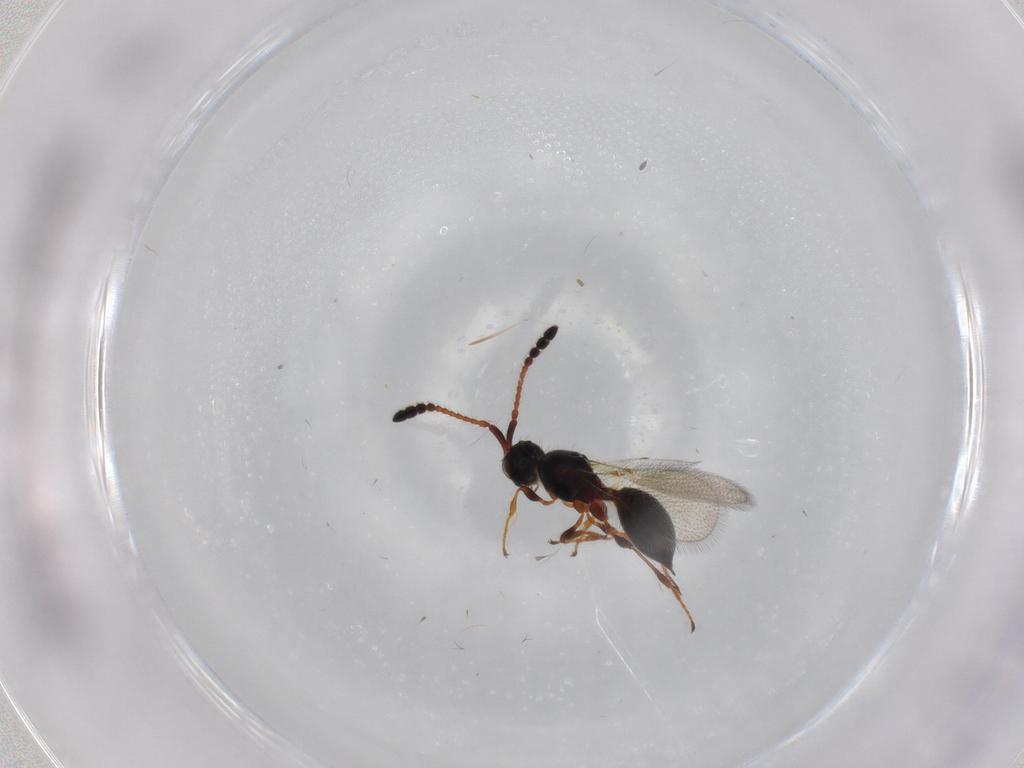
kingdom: Animalia
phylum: Arthropoda
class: Insecta
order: Hymenoptera
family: Diapriidae
